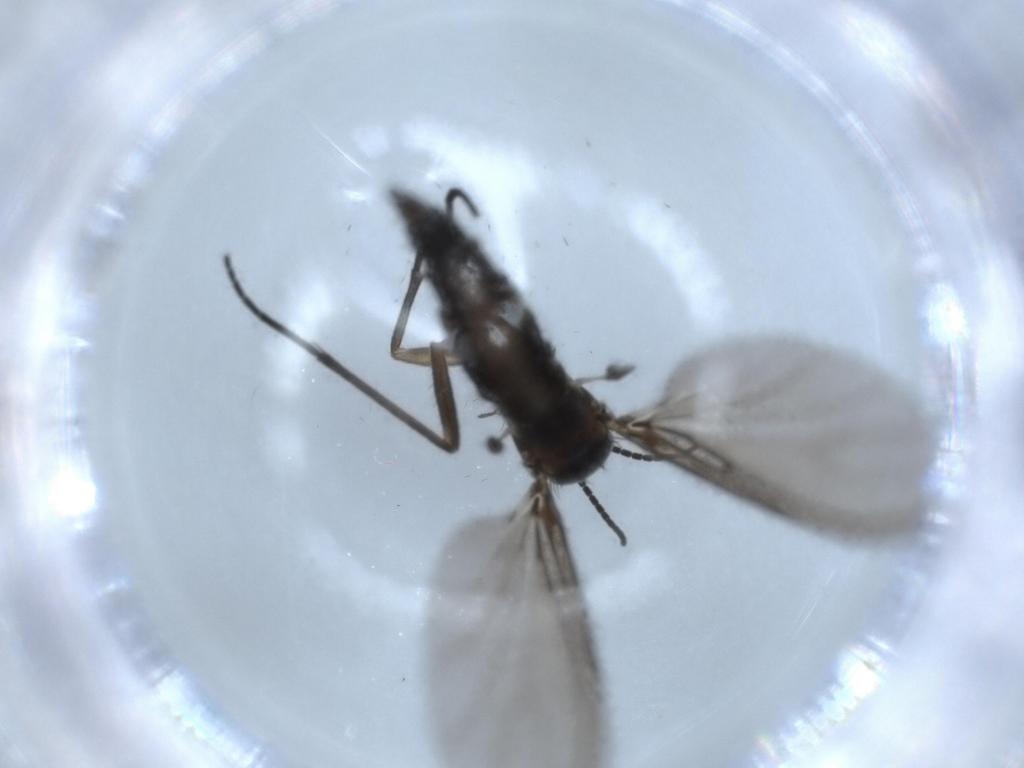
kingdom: Animalia
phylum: Arthropoda
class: Insecta
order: Diptera
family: Sciaridae
